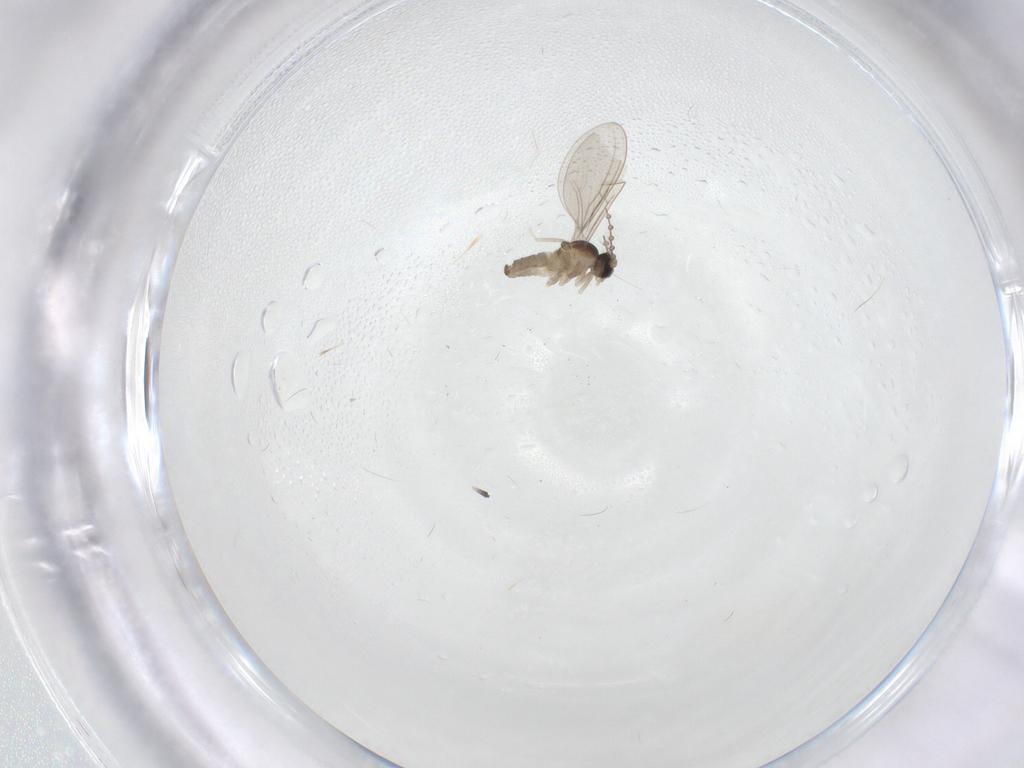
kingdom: Animalia
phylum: Arthropoda
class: Insecta
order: Diptera
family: Cecidomyiidae
